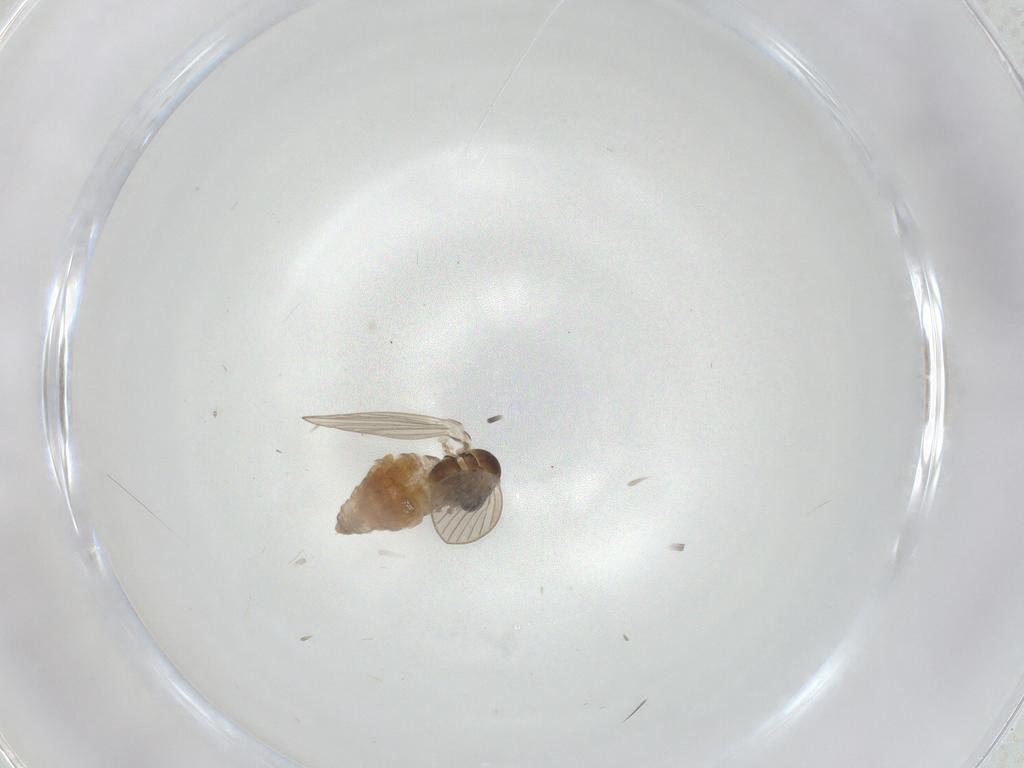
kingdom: Animalia
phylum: Arthropoda
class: Insecta
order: Diptera
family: Psychodidae
